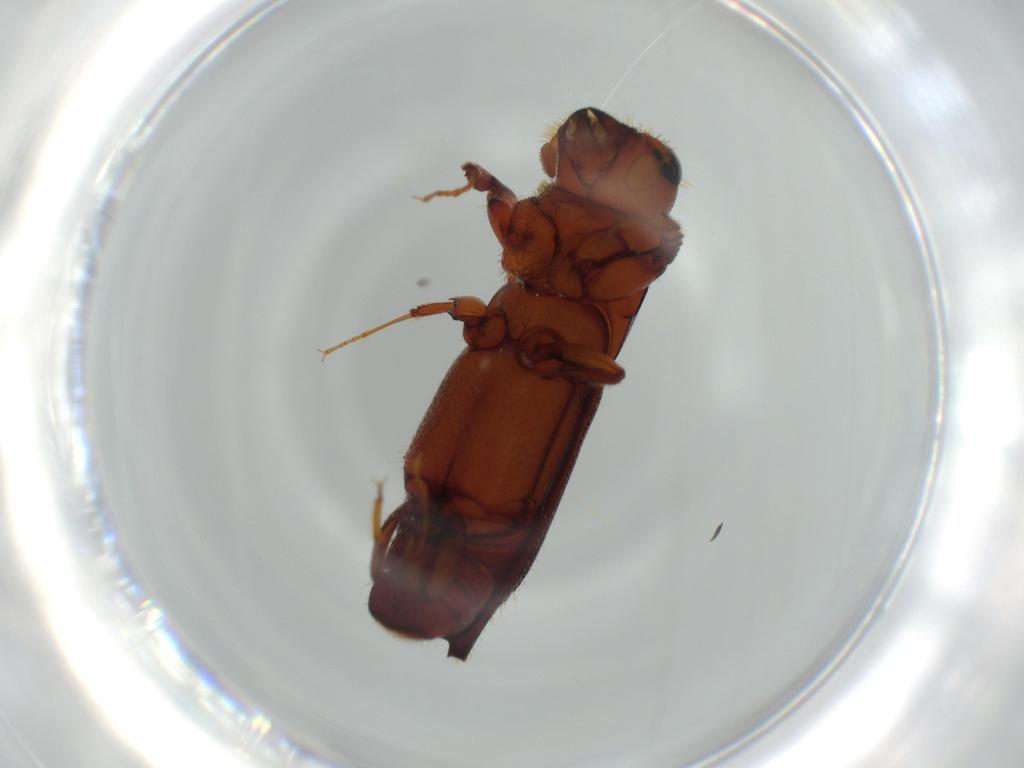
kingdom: Animalia
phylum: Arthropoda
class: Insecta
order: Coleoptera
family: Curculionidae
